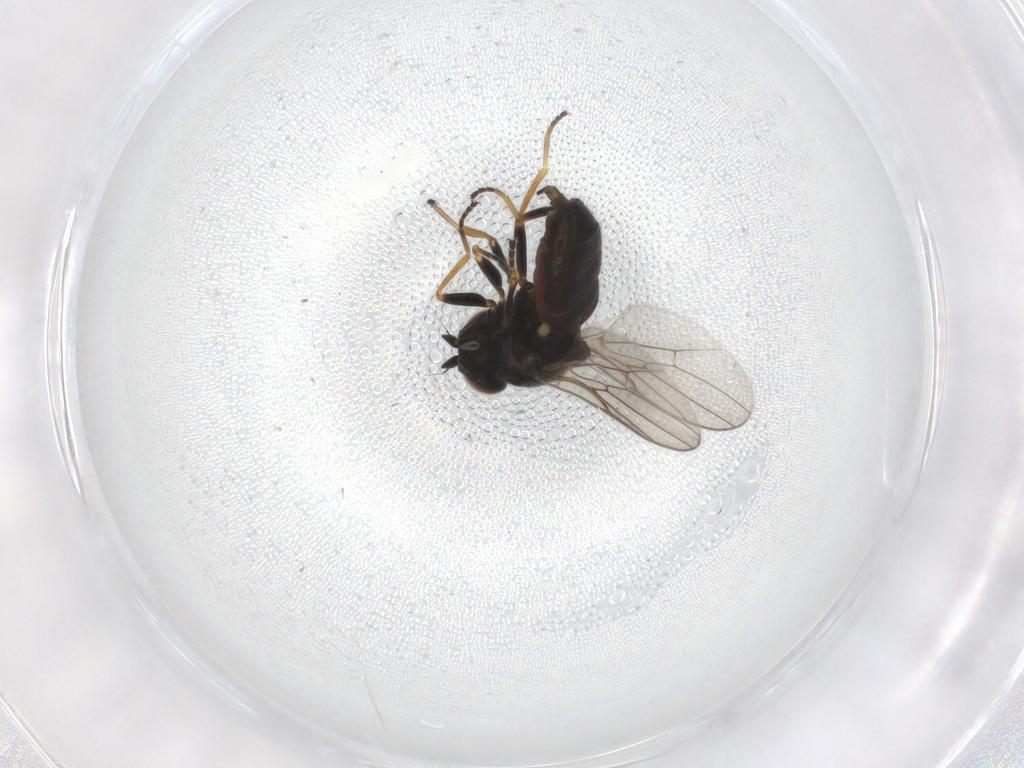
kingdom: Animalia
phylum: Arthropoda
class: Insecta
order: Diptera
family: Chloropidae
